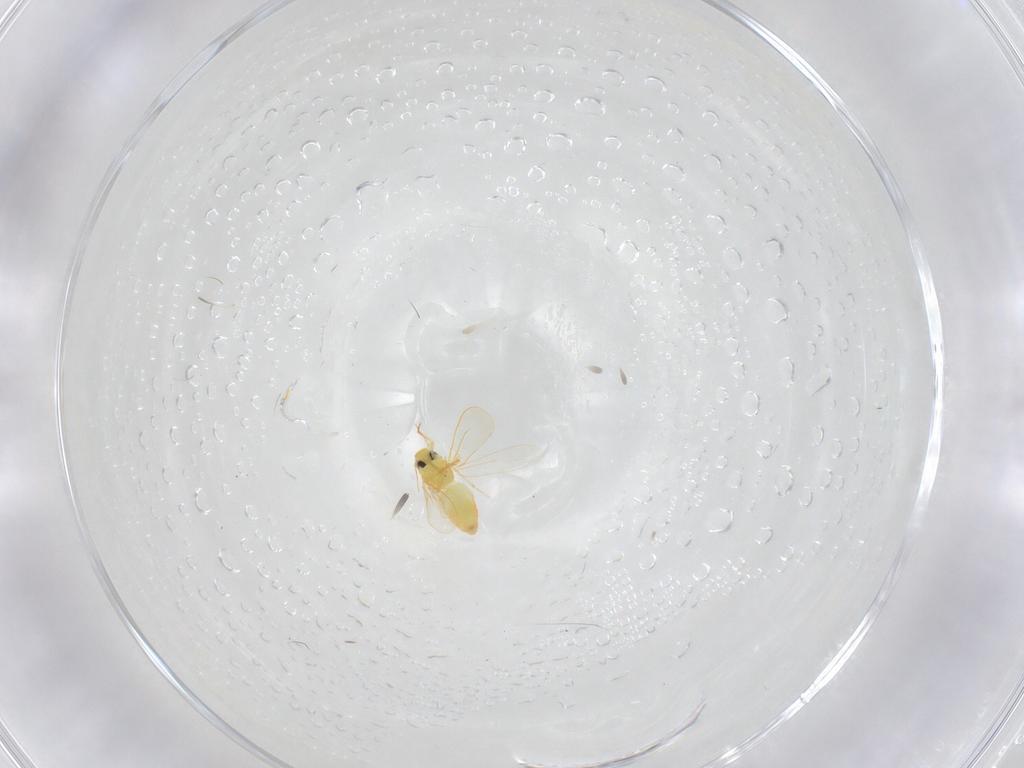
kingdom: Animalia
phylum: Arthropoda
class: Insecta
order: Hemiptera
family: Aleyrodidae
